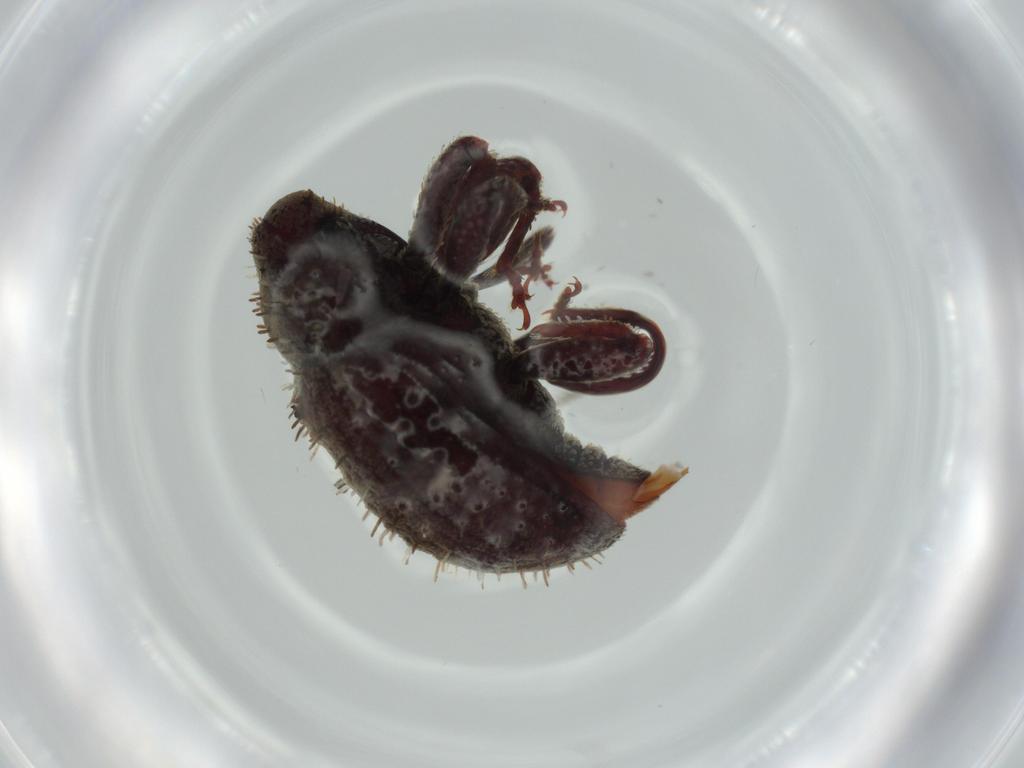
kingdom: Animalia
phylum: Arthropoda
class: Insecta
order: Coleoptera
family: Curculionidae
